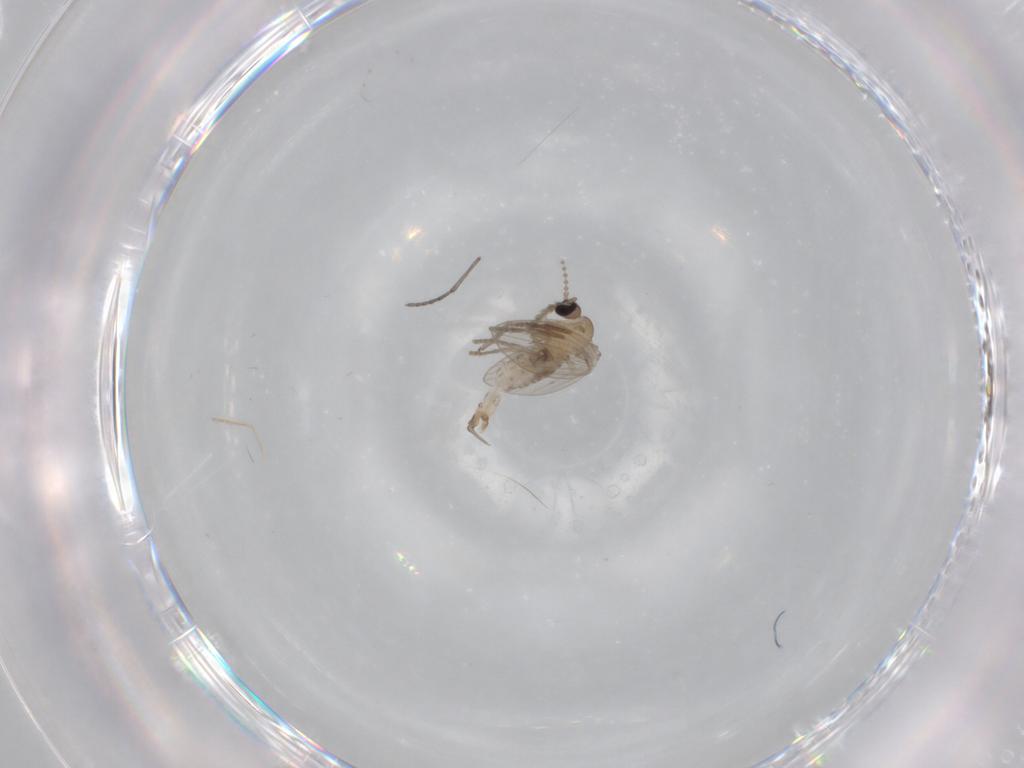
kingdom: Animalia
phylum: Arthropoda
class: Insecta
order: Diptera
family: Psychodidae
